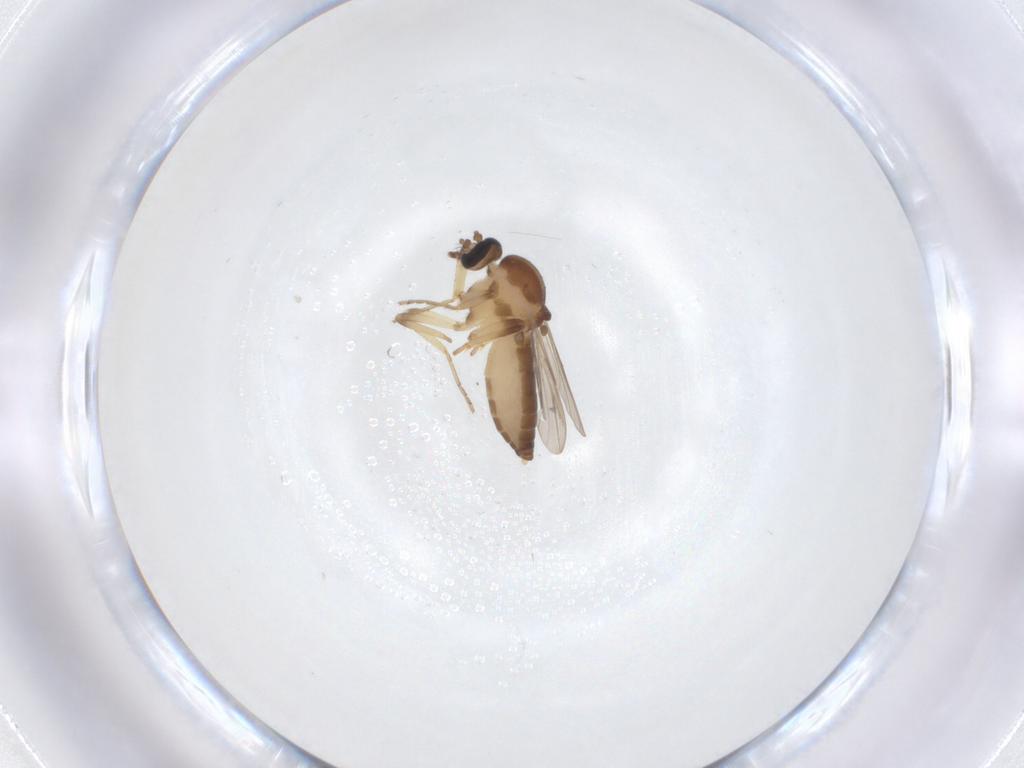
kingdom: Animalia
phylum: Arthropoda
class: Insecta
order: Diptera
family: Ceratopogonidae
